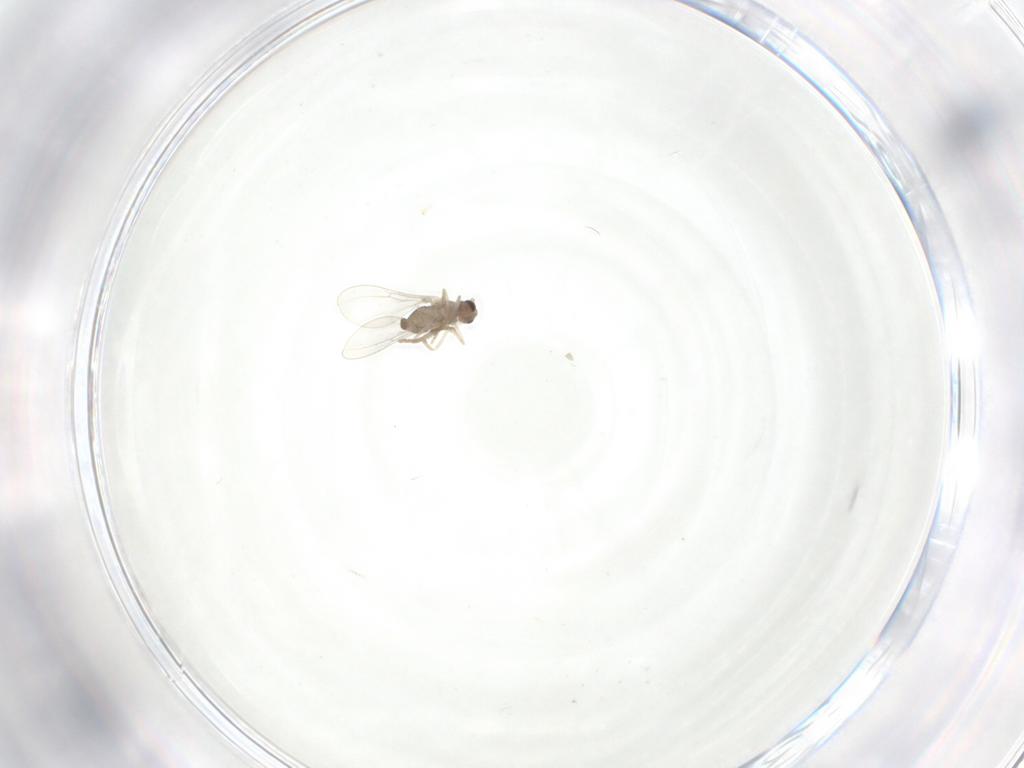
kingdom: Animalia
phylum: Arthropoda
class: Insecta
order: Diptera
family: Cecidomyiidae
